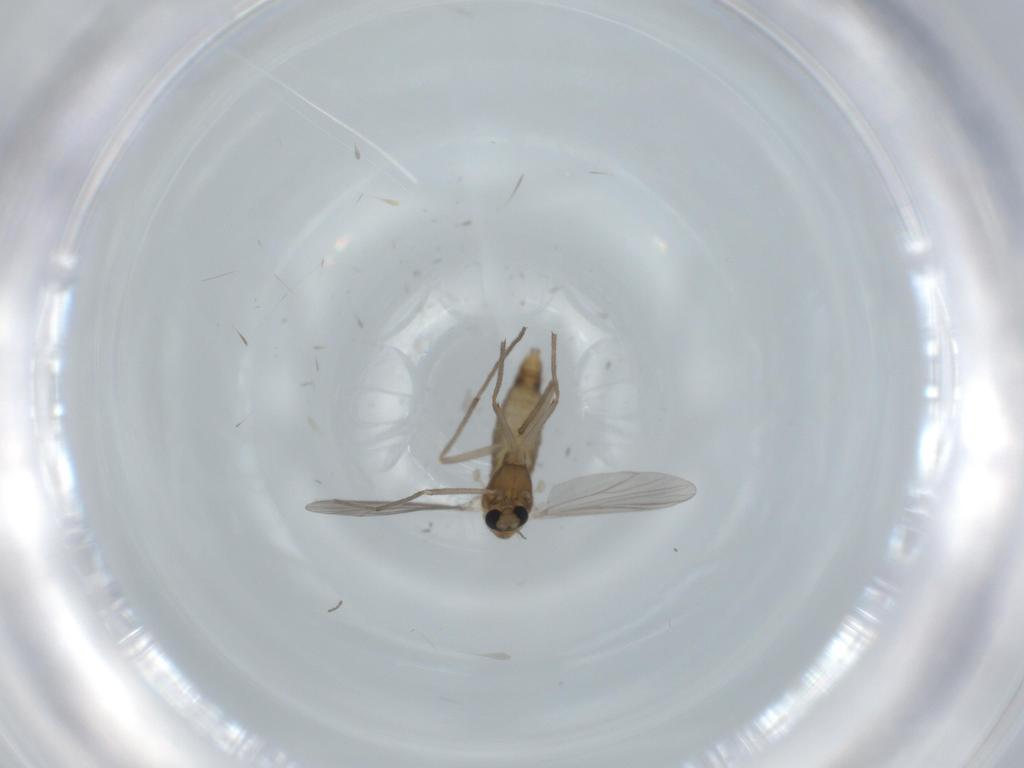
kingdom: Animalia
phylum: Arthropoda
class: Insecta
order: Diptera
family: Chironomidae
